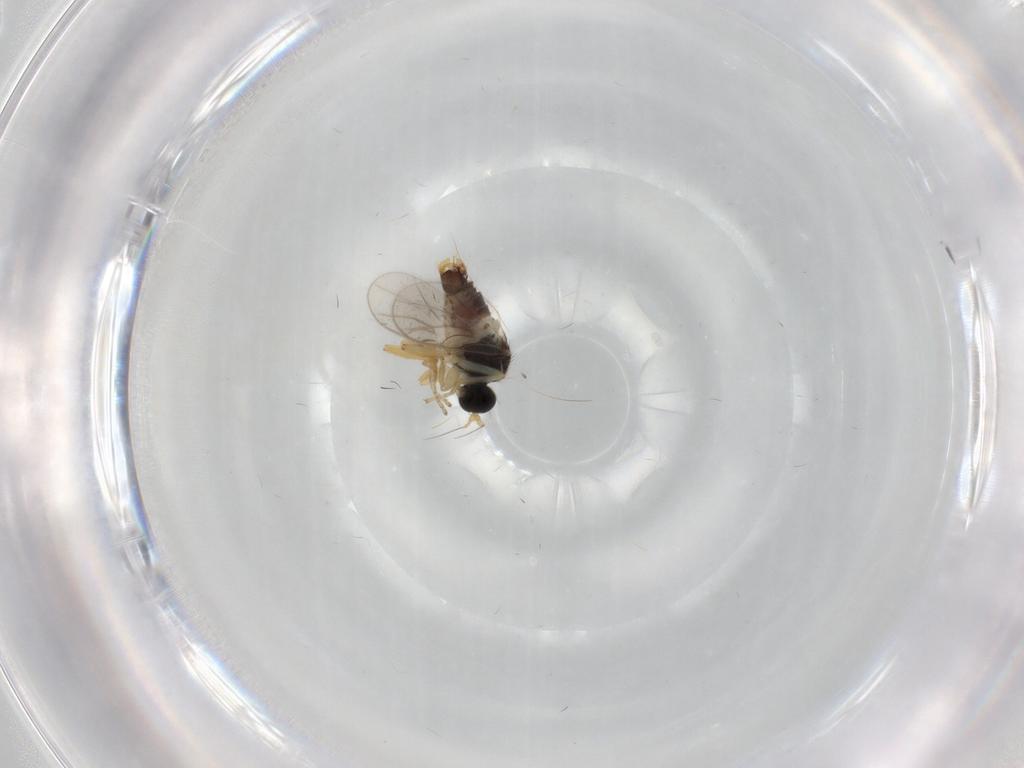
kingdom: Animalia
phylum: Arthropoda
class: Insecta
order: Diptera
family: Hybotidae
